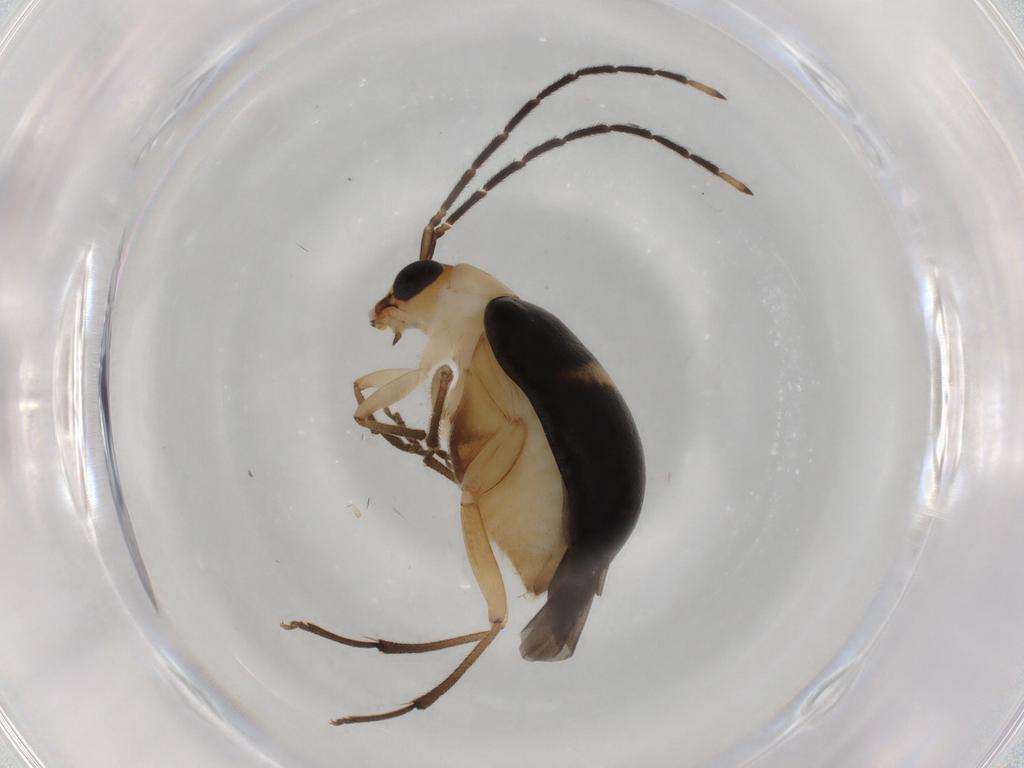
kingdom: Animalia
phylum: Arthropoda
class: Insecta
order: Coleoptera
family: Chrysomelidae
